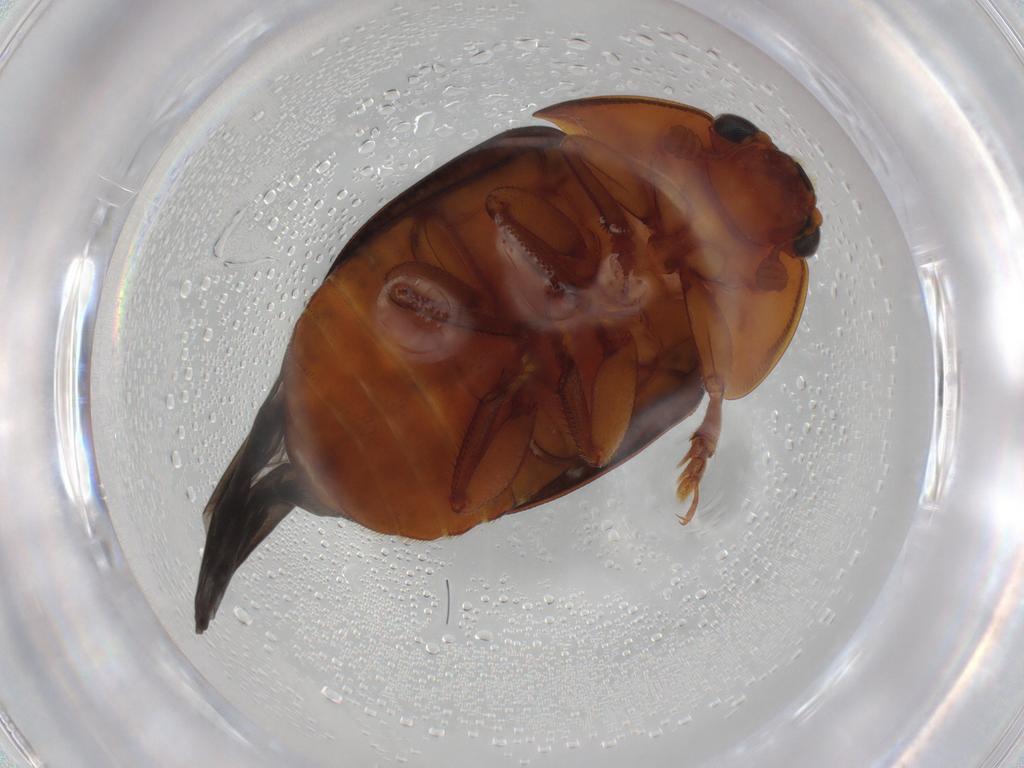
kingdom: Animalia
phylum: Arthropoda
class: Insecta
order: Coleoptera
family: Nitidulidae
